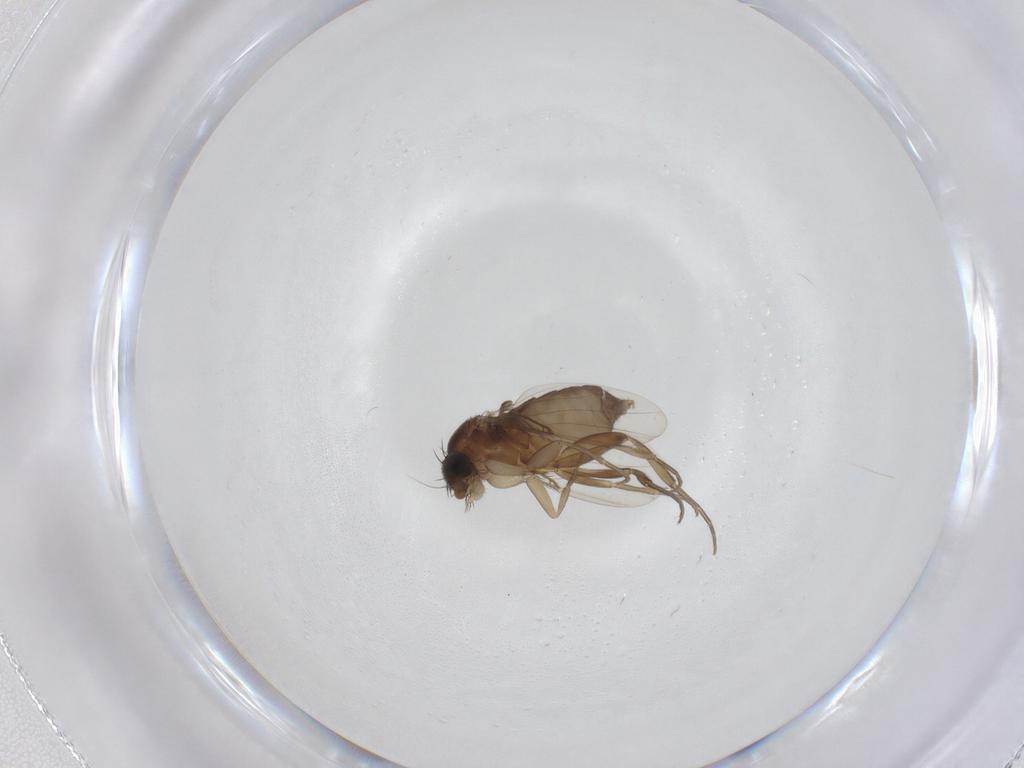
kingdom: Animalia
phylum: Arthropoda
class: Insecta
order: Diptera
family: Phoridae
